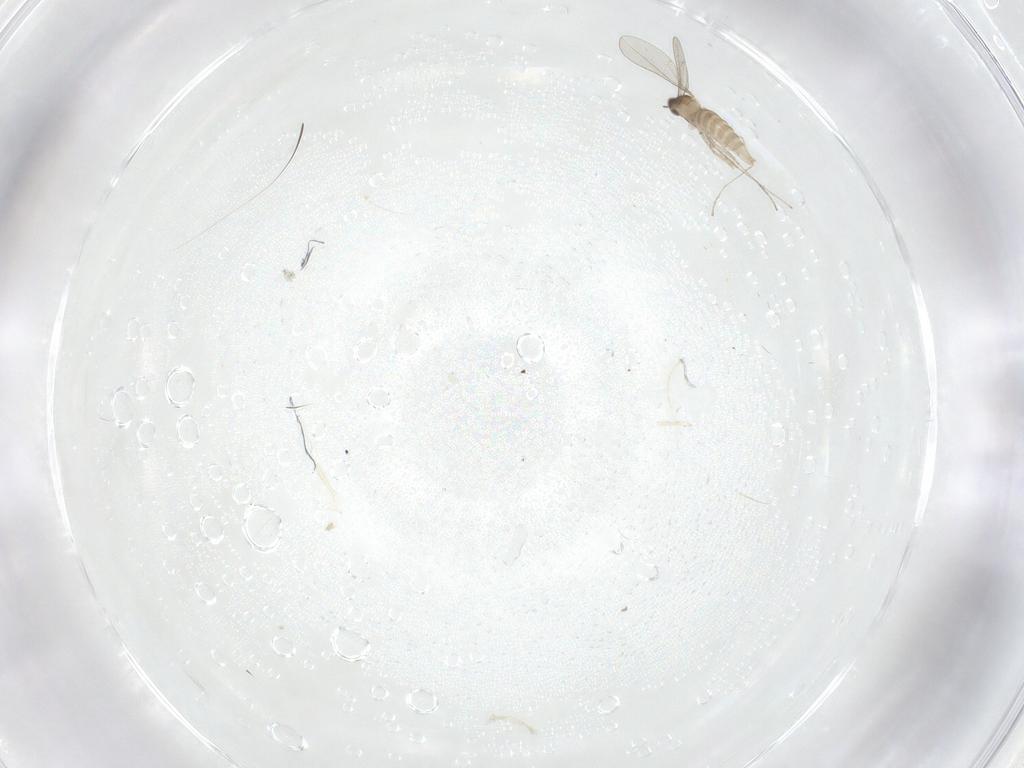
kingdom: Animalia
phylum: Arthropoda
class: Insecta
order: Diptera
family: Cecidomyiidae
